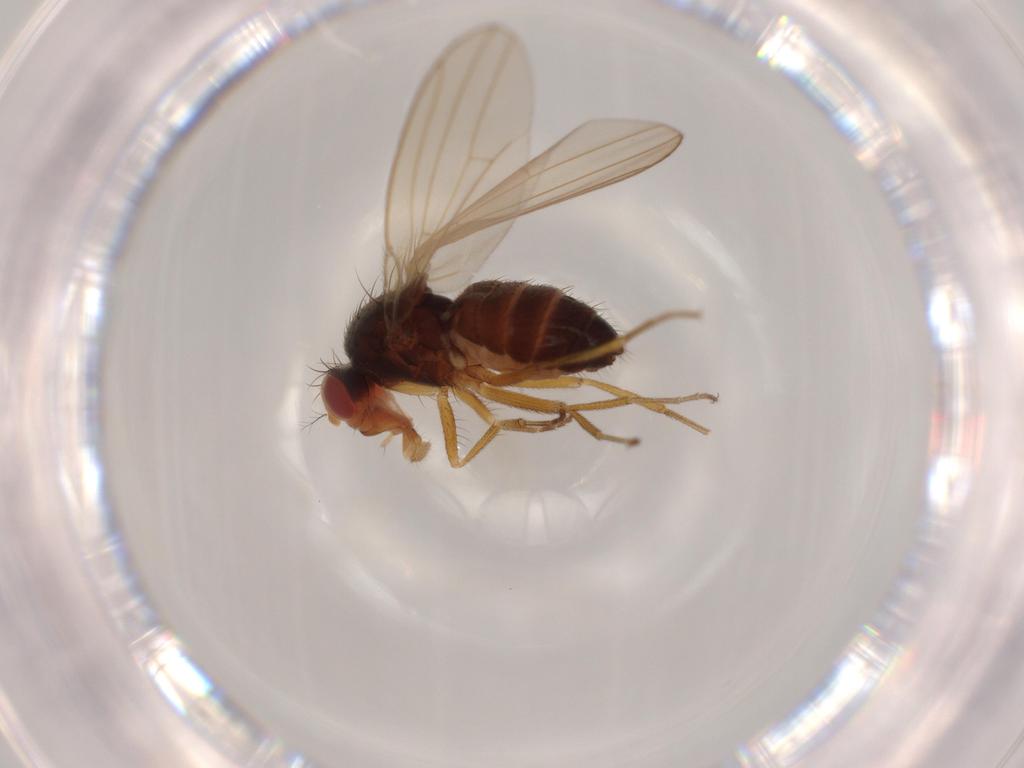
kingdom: Animalia
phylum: Arthropoda
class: Insecta
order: Diptera
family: Drosophilidae
